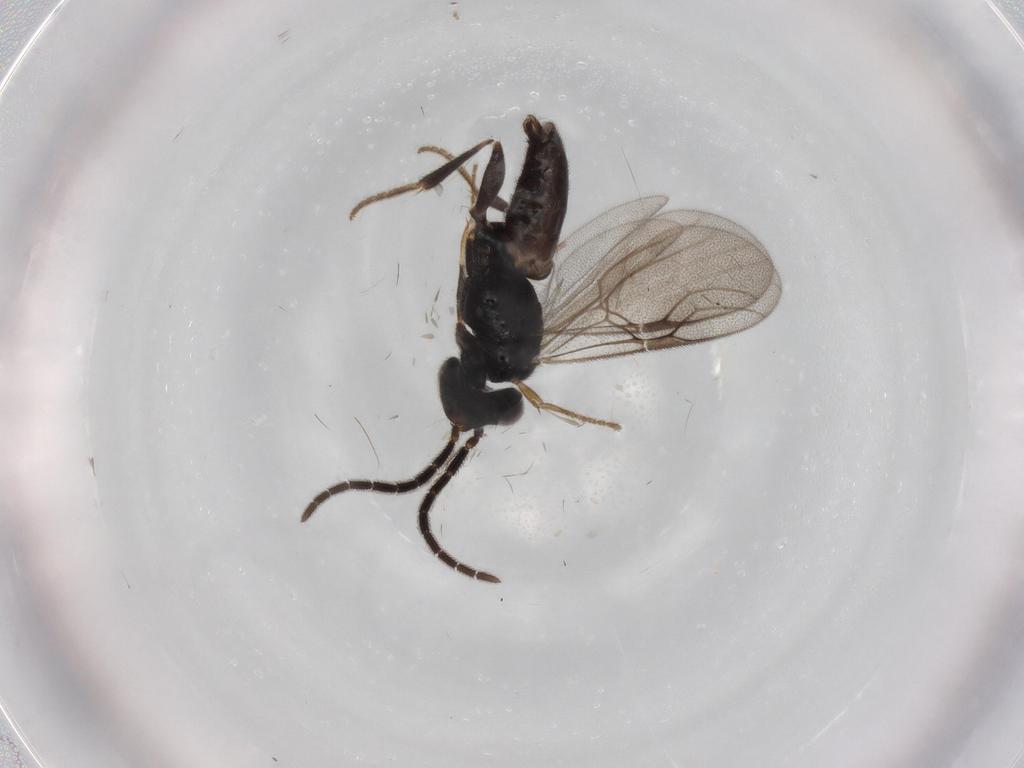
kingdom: Animalia
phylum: Arthropoda
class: Insecta
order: Hymenoptera
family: Dryinidae
